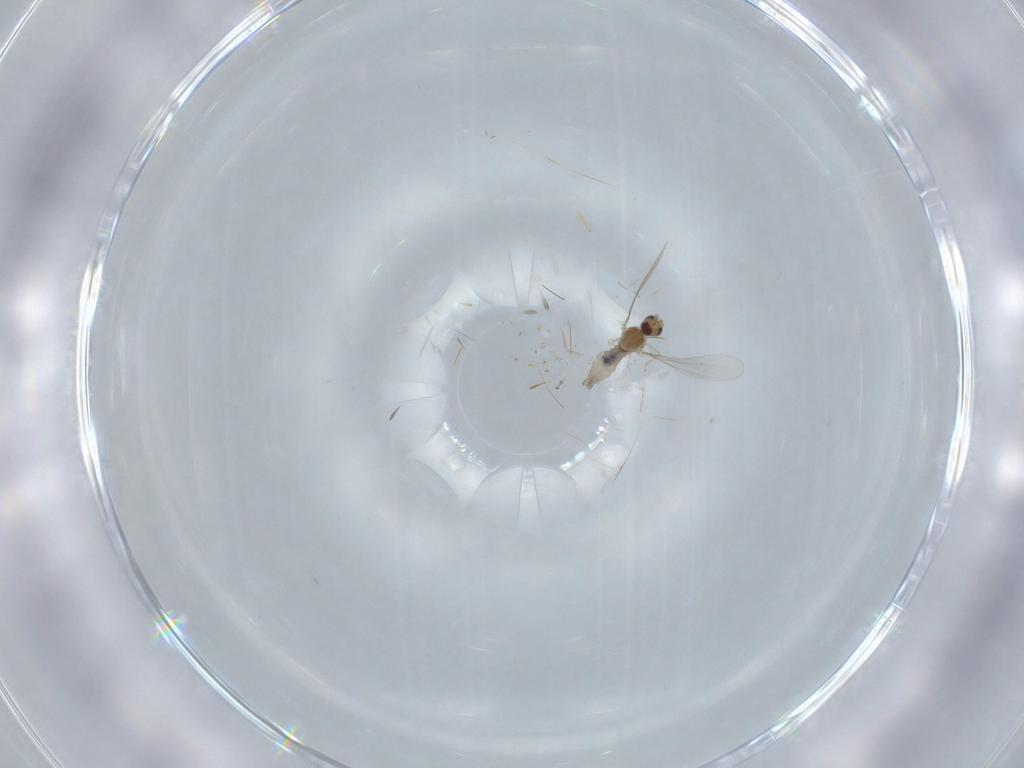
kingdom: Animalia
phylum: Arthropoda
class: Insecta
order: Diptera
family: Cecidomyiidae
